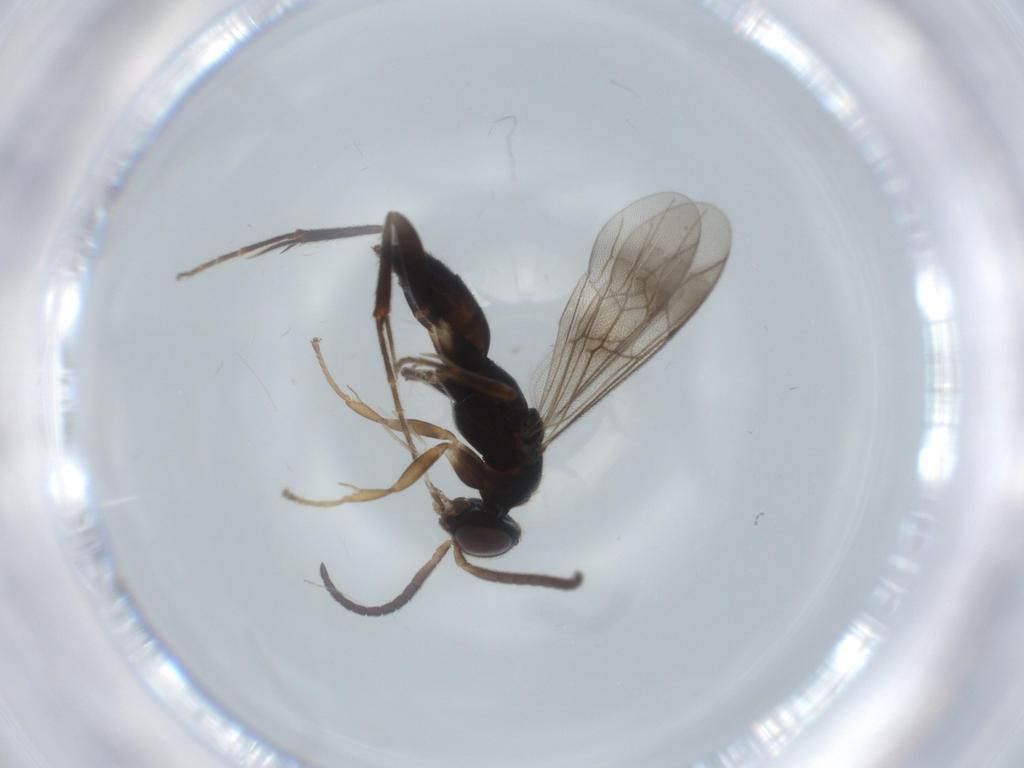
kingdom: Animalia
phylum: Arthropoda
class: Insecta
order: Hymenoptera
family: Pompilidae
